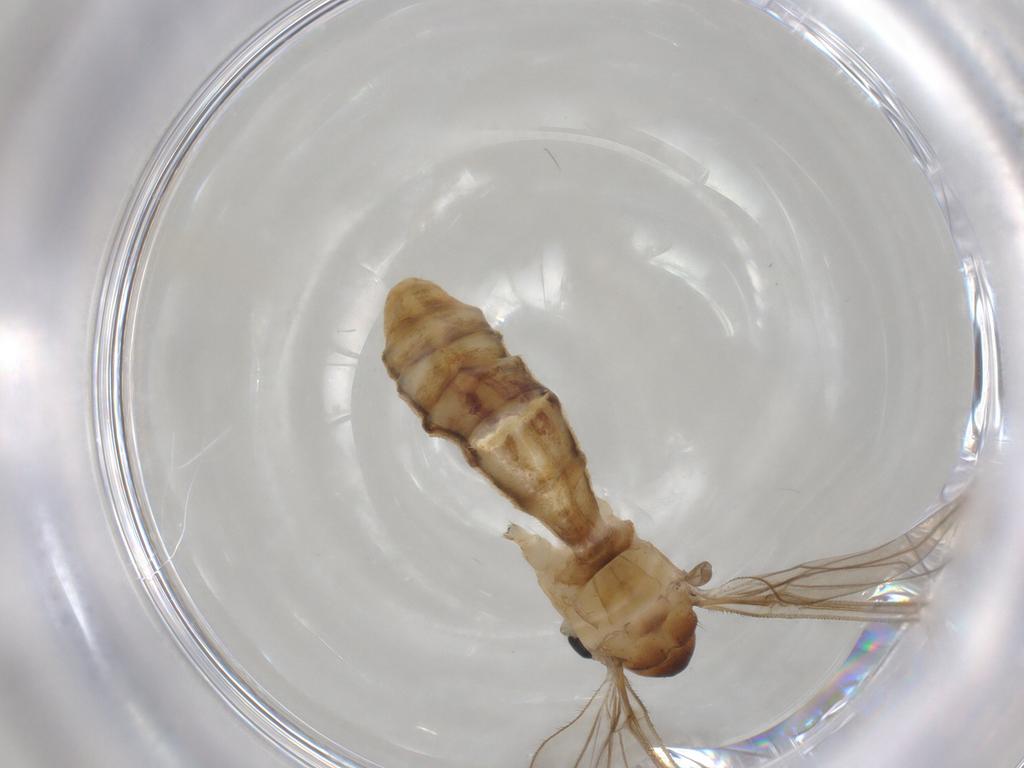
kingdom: Animalia
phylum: Arthropoda
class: Insecta
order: Diptera
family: Limoniidae
